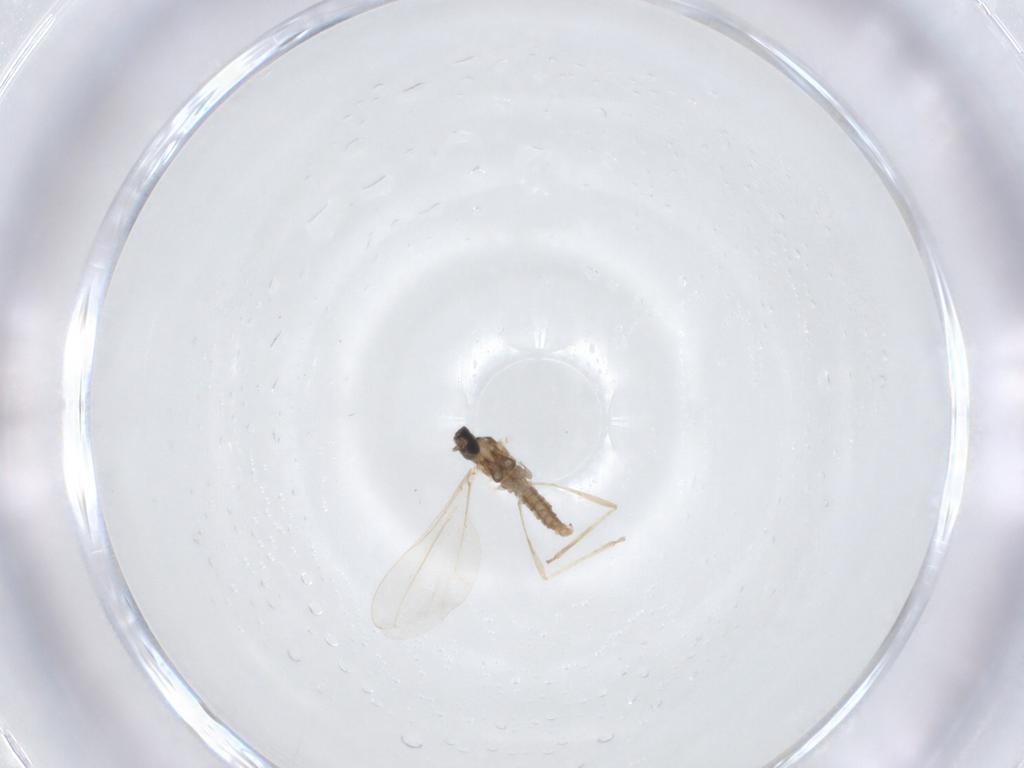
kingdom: Animalia
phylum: Arthropoda
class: Insecta
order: Diptera
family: Chironomidae
